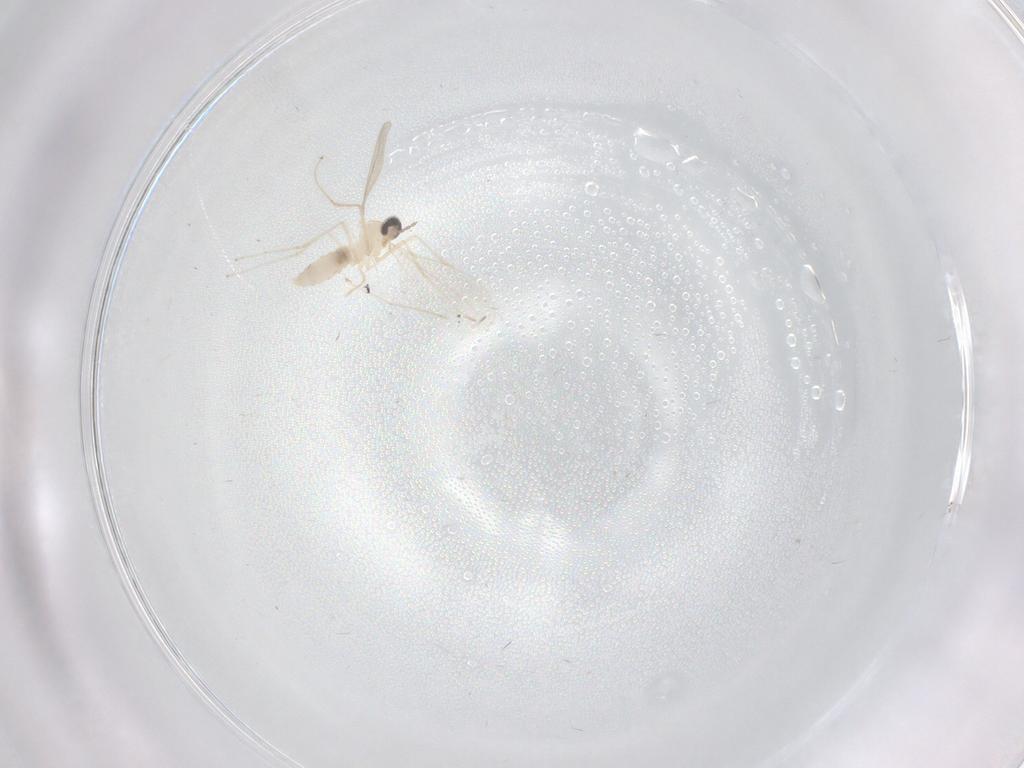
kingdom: Animalia
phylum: Arthropoda
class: Insecta
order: Diptera
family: Cecidomyiidae
